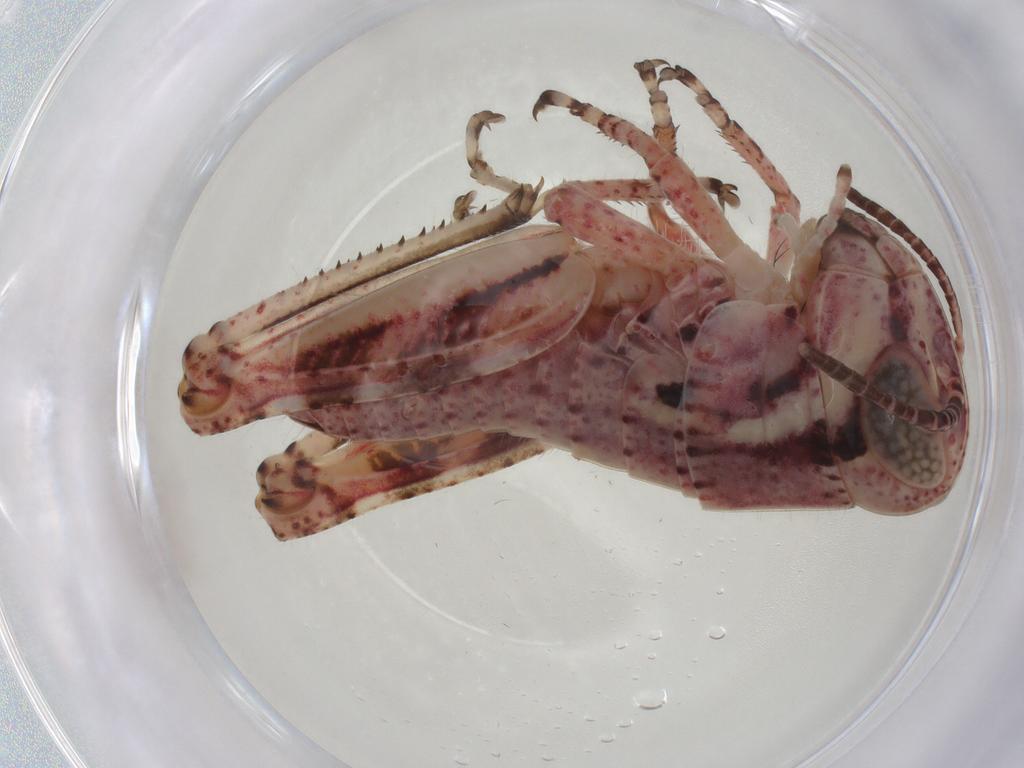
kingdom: Animalia
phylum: Arthropoda
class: Insecta
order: Orthoptera
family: Acrididae
